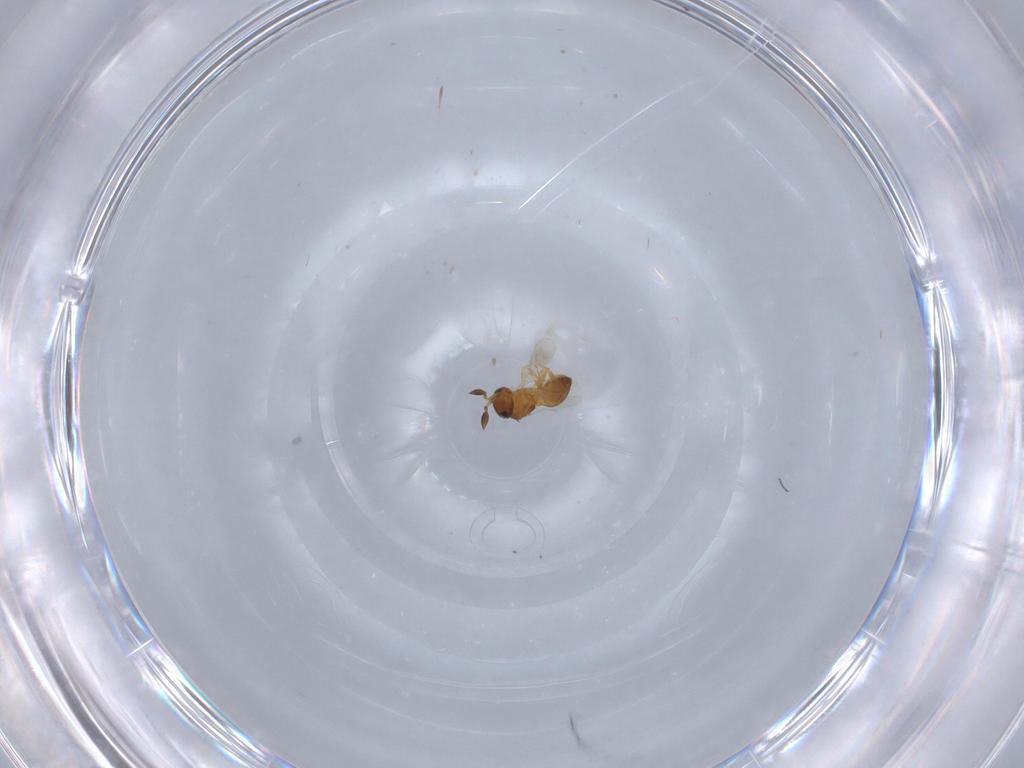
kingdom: Animalia
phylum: Arthropoda
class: Insecta
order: Hymenoptera
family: Scelionidae
